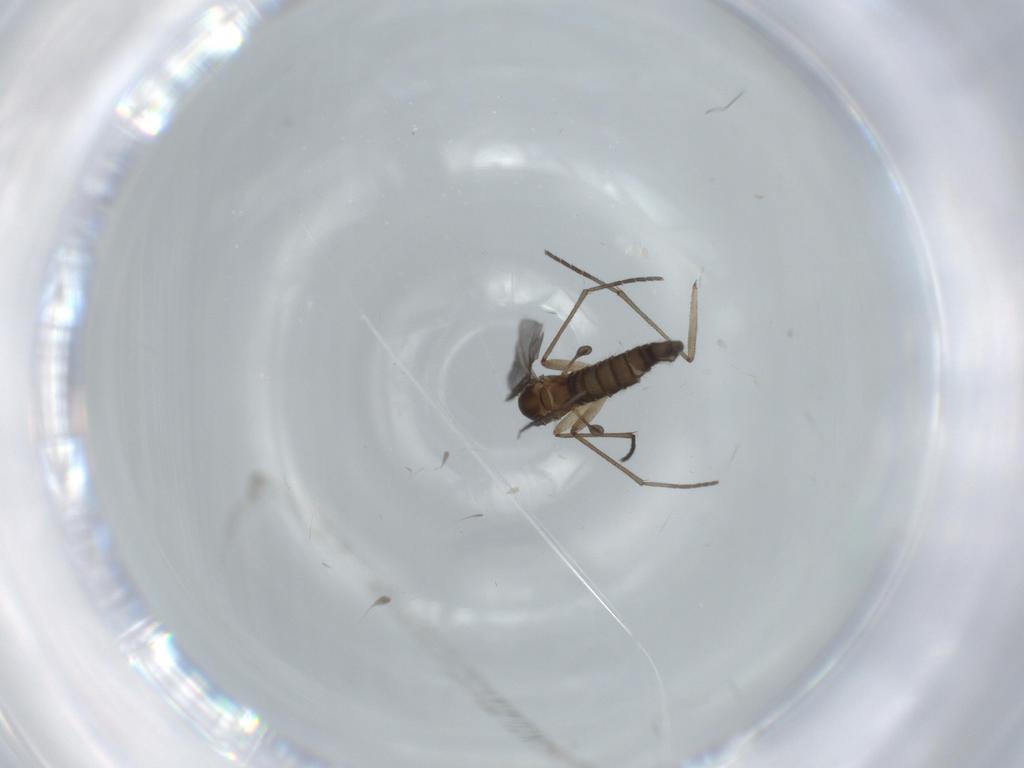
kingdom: Animalia
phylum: Arthropoda
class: Insecta
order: Diptera
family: Sciaridae
